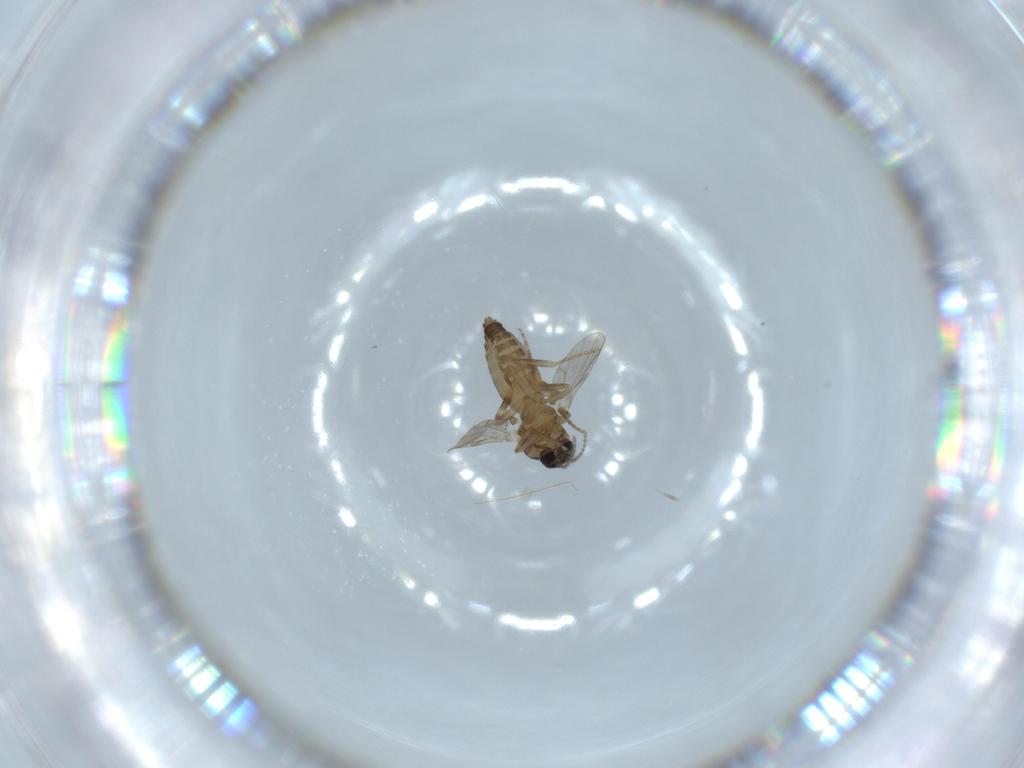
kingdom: Animalia
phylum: Arthropoda
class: Insecta
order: Diptera
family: Ceratopogonidae
